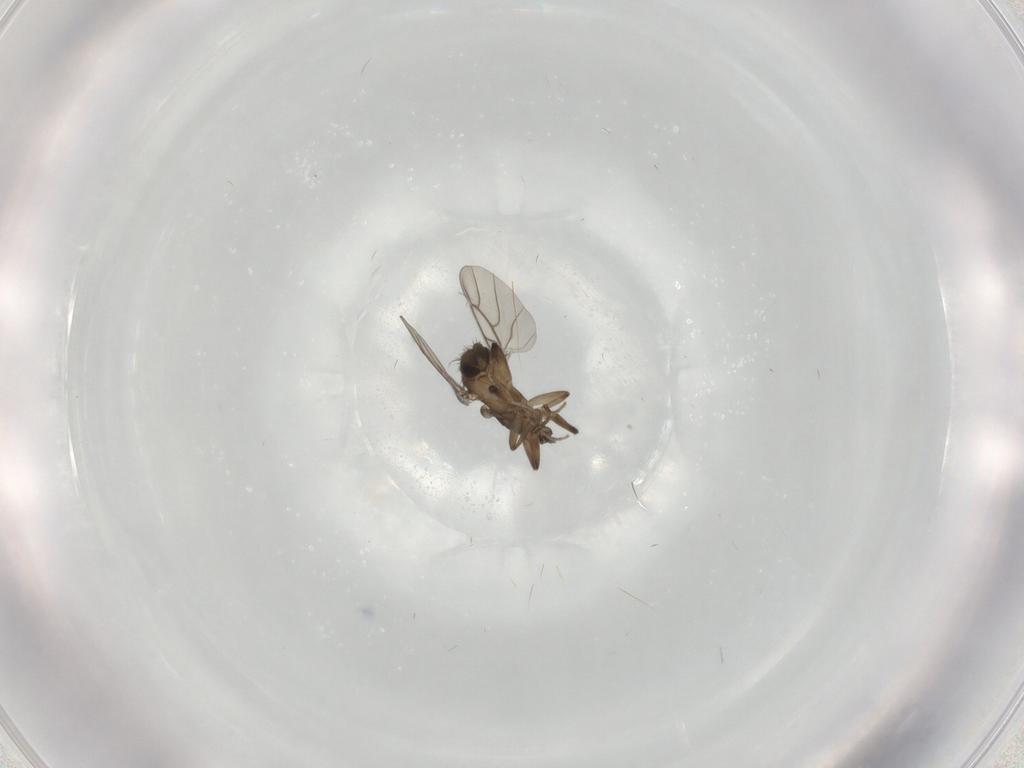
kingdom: Animalia
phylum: Arthropoda
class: Insecta
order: Diptera
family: Phoridae
